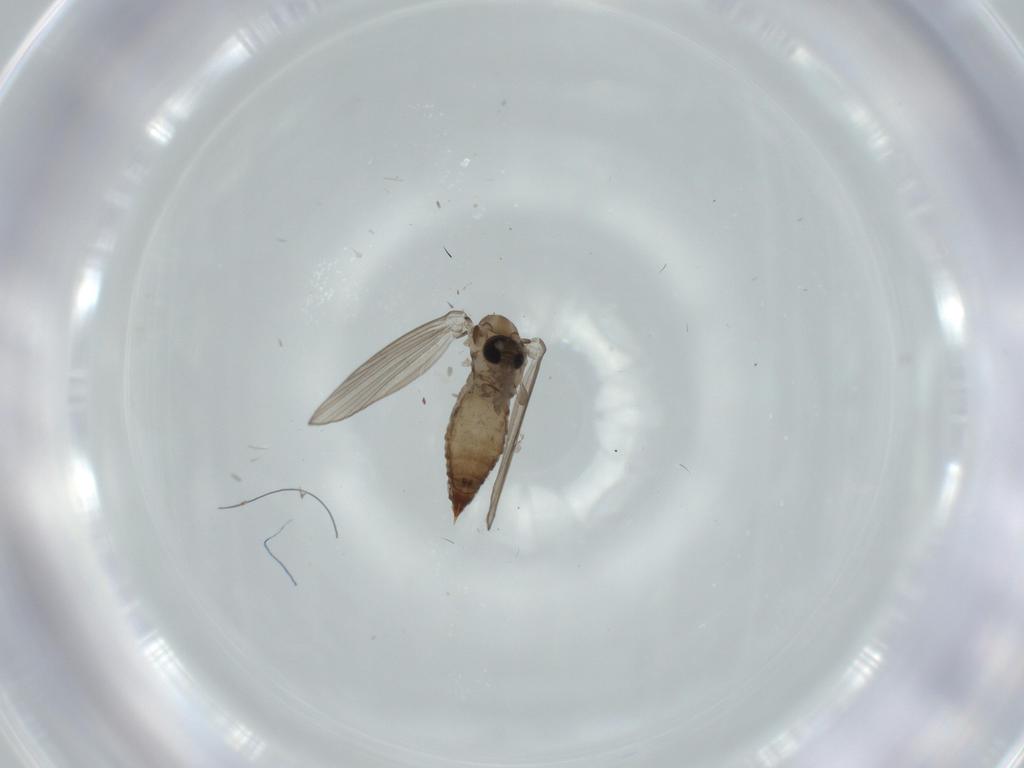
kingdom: Animalia
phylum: Arthropoda
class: Insecta
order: Diptera
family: Psychodidae
